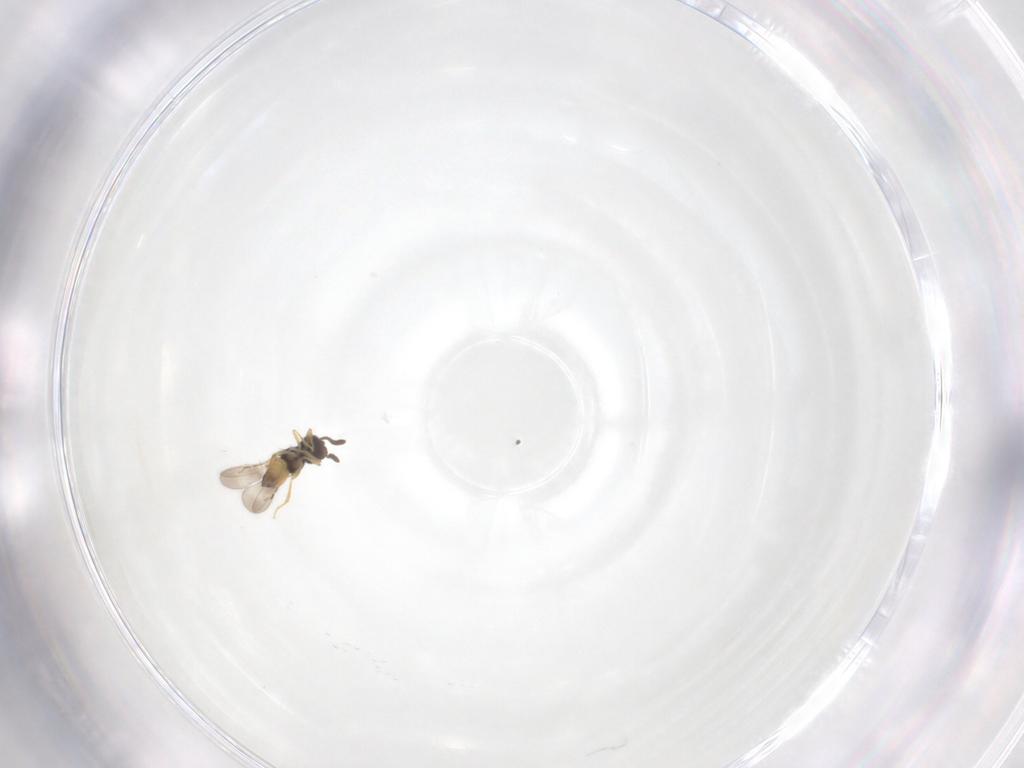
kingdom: Animalia
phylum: Arthropoda
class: Insecta
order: Hymenoptera
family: Ceraphronidae
